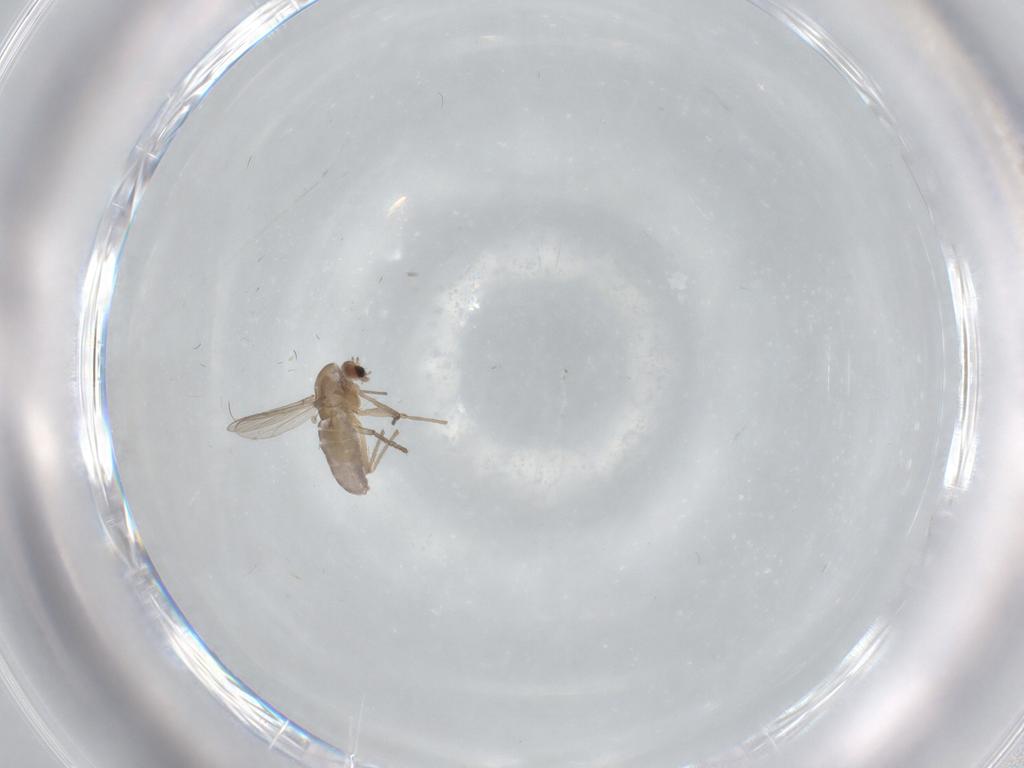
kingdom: Animalia
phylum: Arthropoda
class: Insecta
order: Diptera
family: Chironomidae
